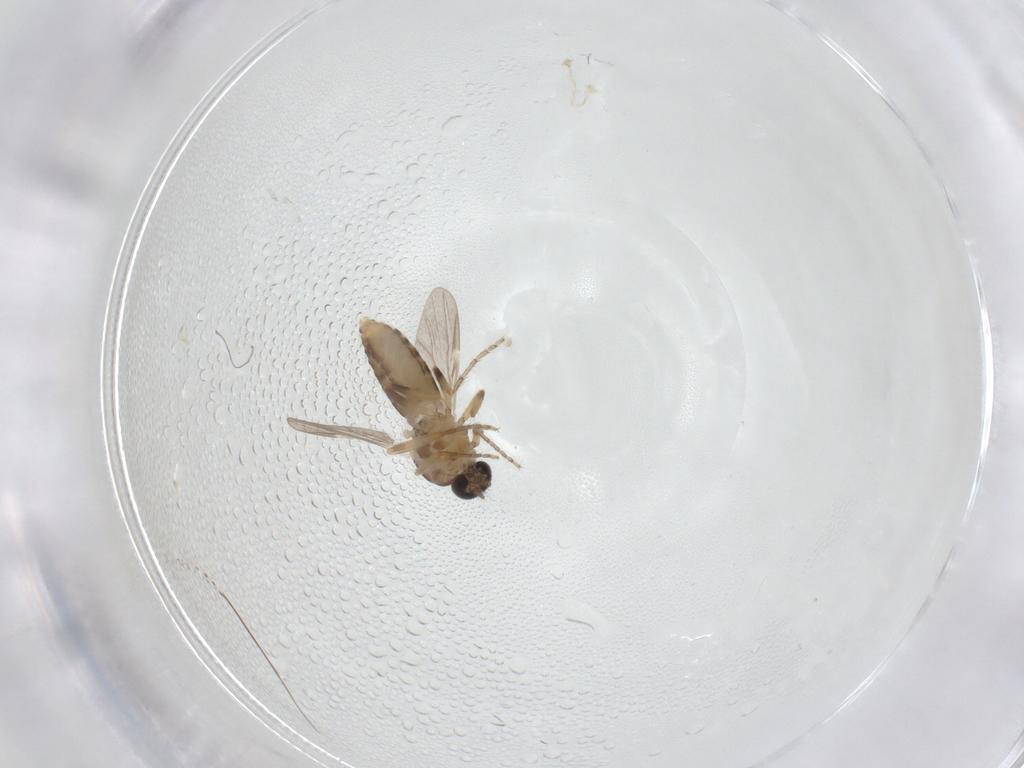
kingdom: Animalia
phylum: Arthropoda
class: Insecta
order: Diptera
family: Ceratopogonidae
